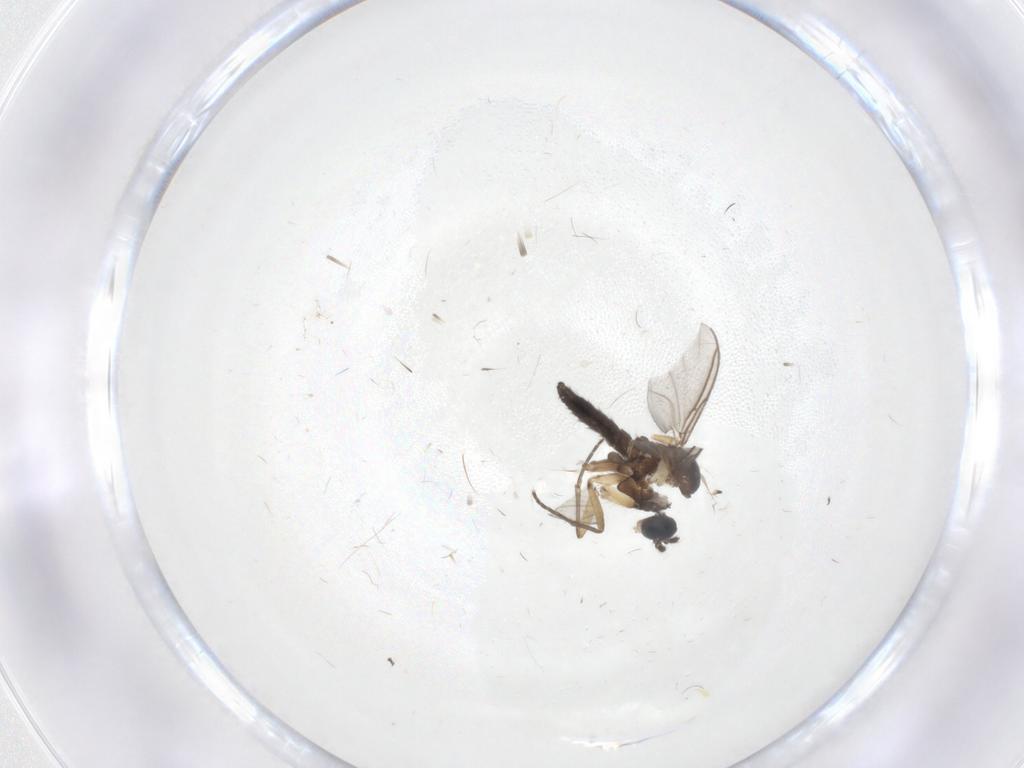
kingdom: Animalia
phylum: Arthropoda
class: Insecta
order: Diptera
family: Sciaridae
